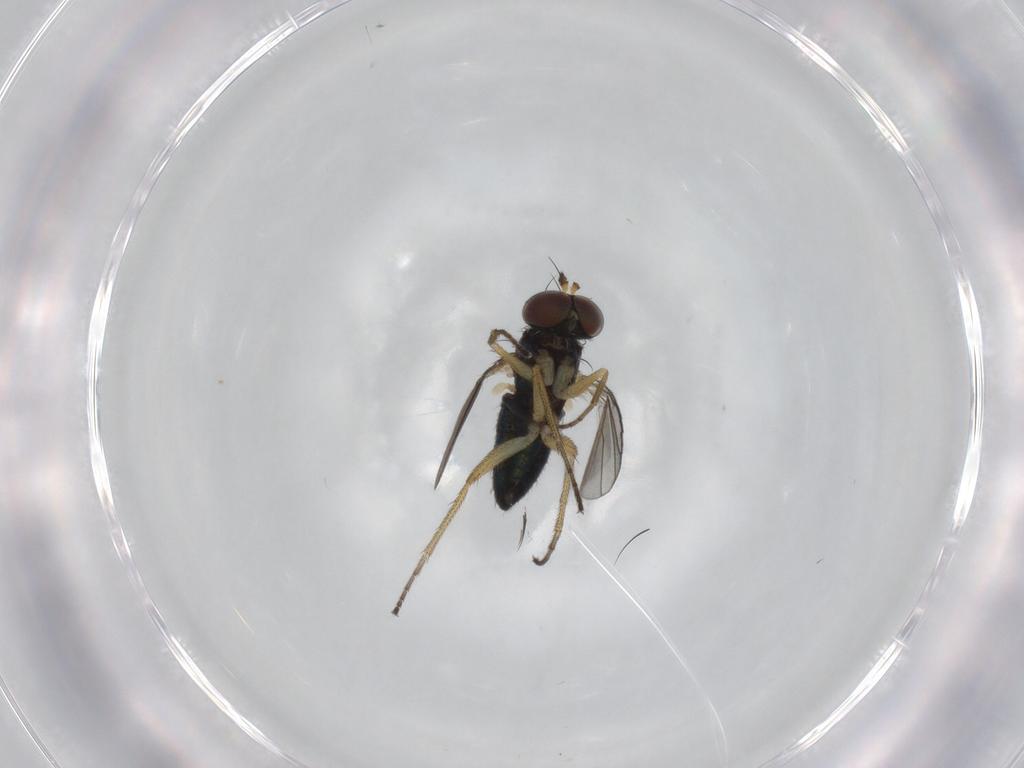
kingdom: Animalia
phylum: Arthropoda
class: Insecta
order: Diptera
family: Dolichopodidae
